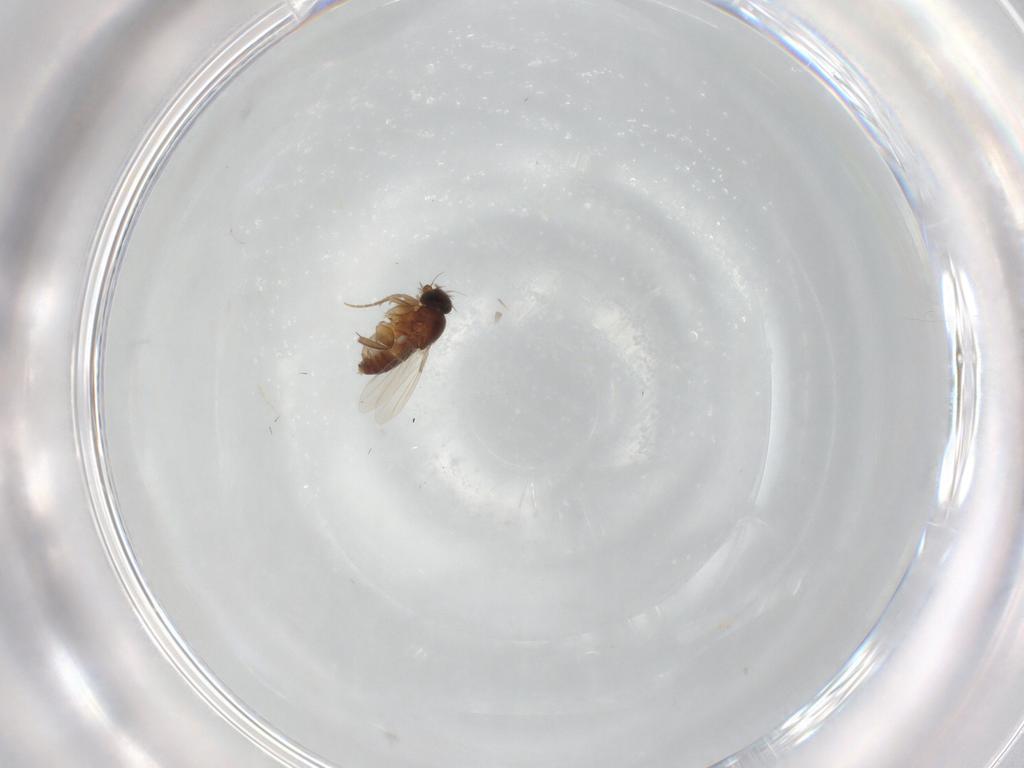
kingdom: Animalia
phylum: Arthropoda
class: Insecta
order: Diptera
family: Phoridae
